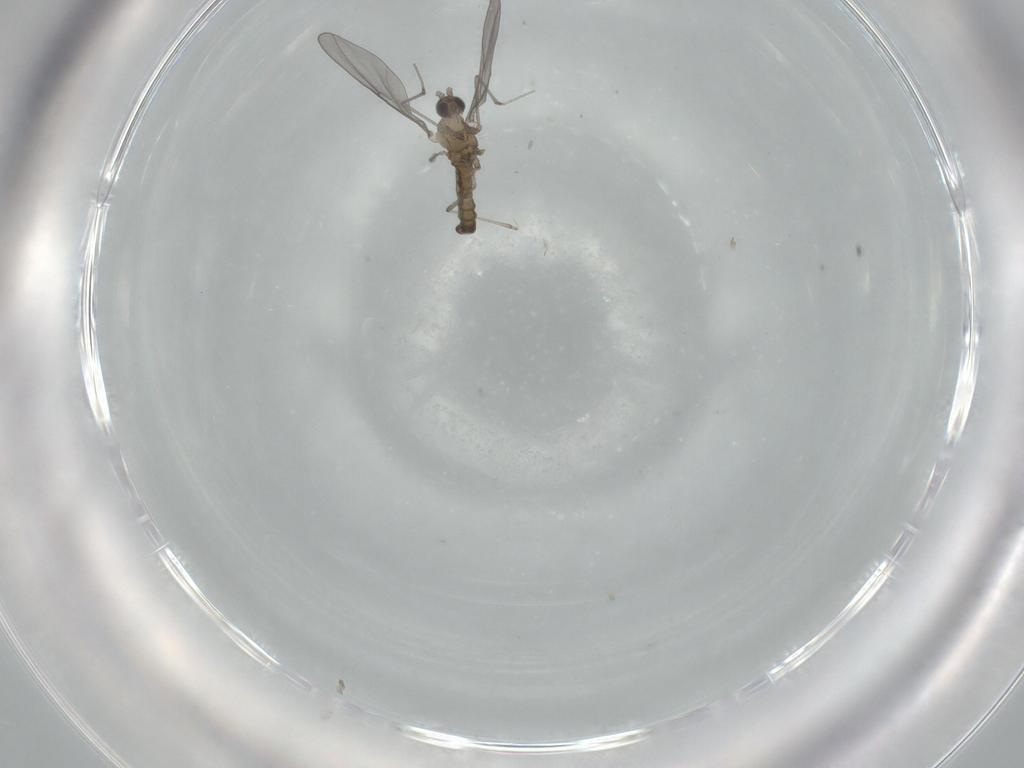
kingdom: Animalia
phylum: Arthropoda
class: Insecta
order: Diptera
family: Cecidomyiidae
